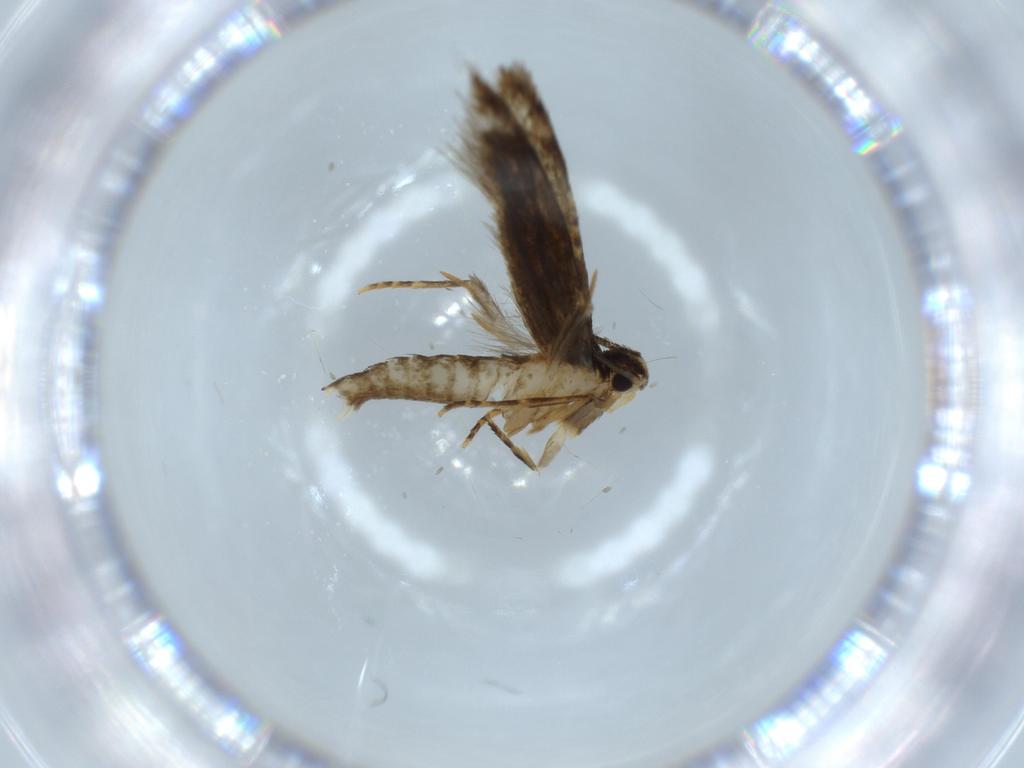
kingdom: Animalia
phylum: Arthropoda
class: Insecta
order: Lepidoptera
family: Tineidae
